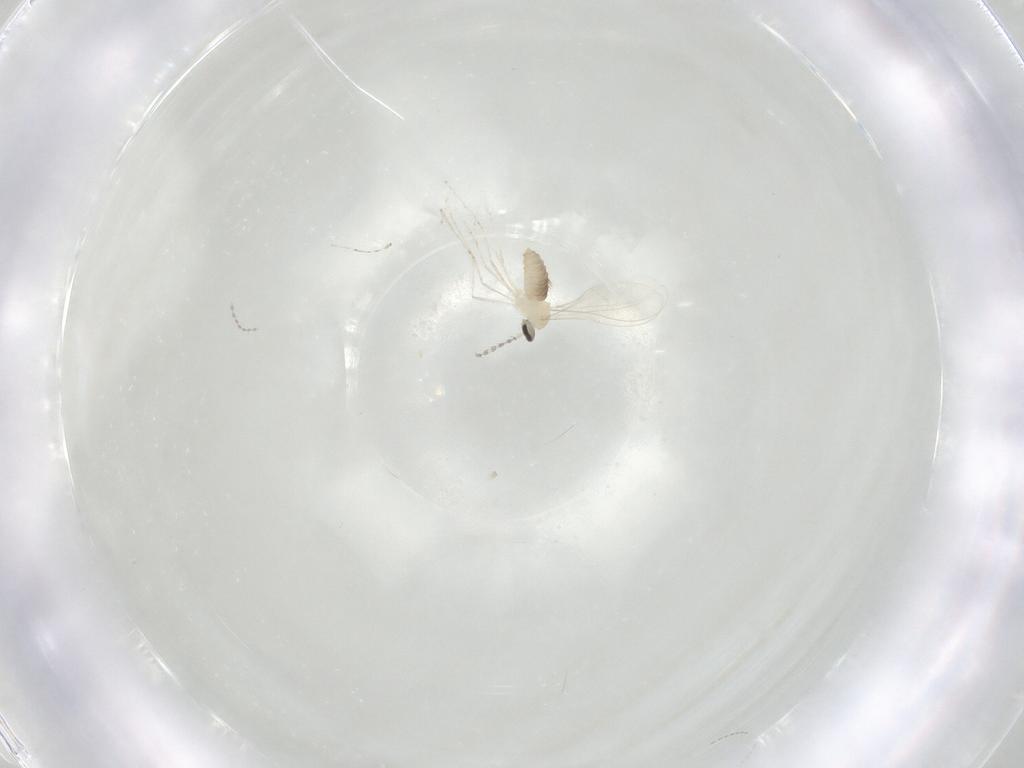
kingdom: Animalia
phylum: Arthropoda
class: Insecta
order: Diptera
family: Cecidomyiidae
